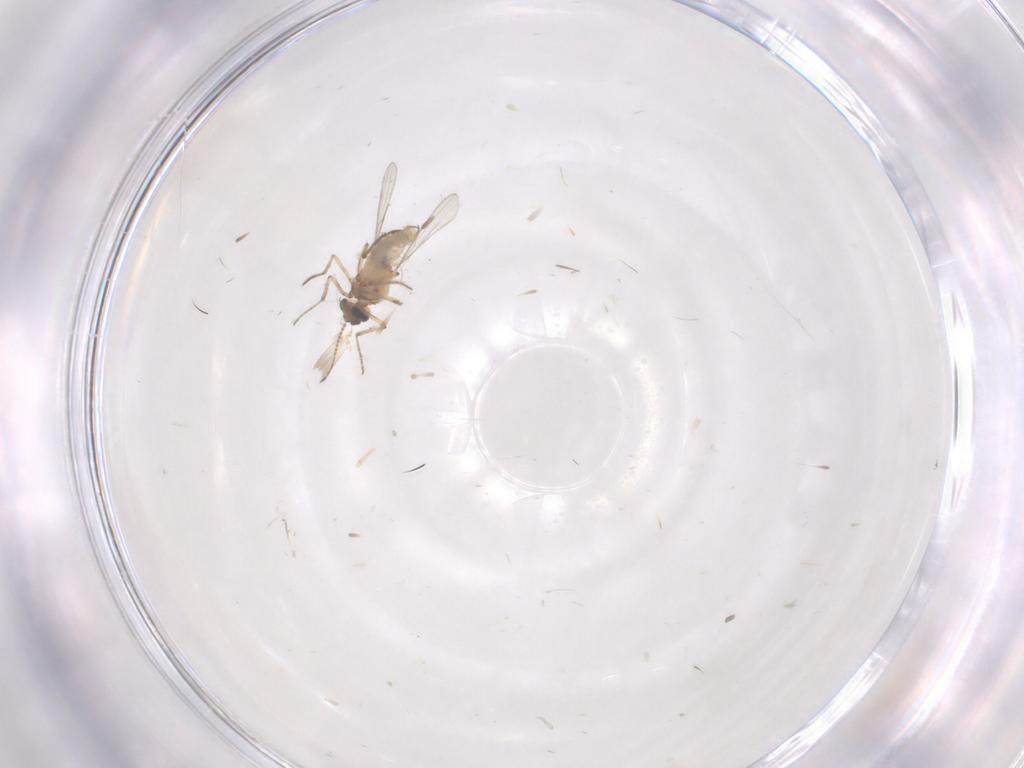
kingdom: Animalia
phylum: Arthropoda
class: Insecta
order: Diptera
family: Ceratopogonidae
